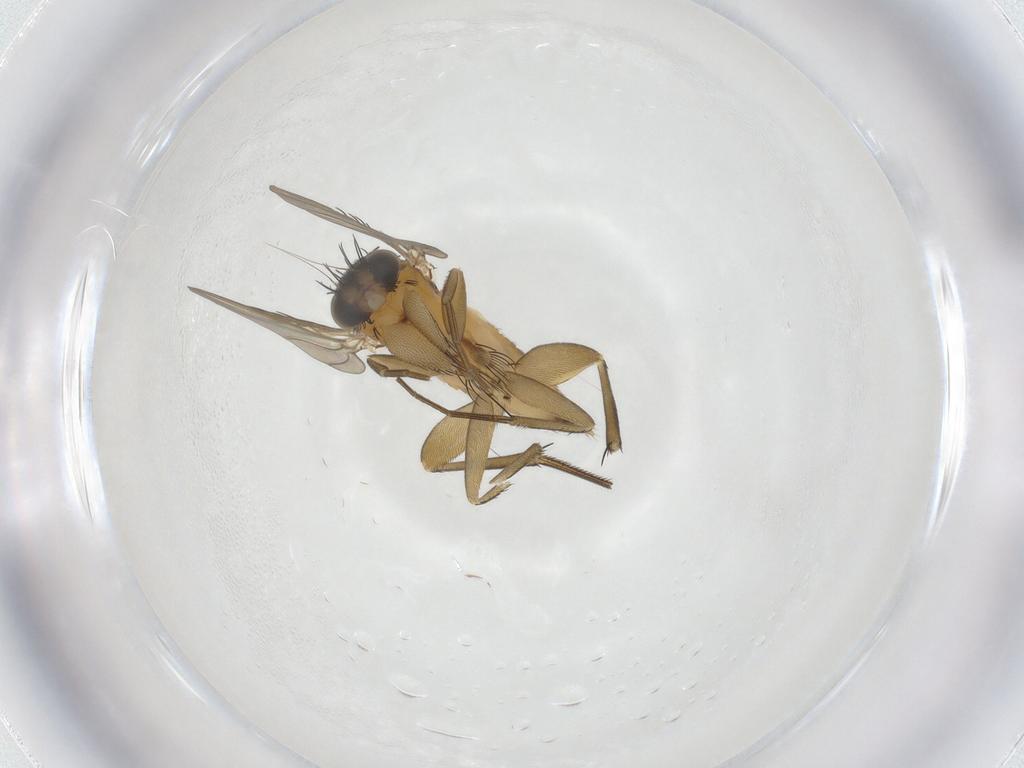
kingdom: Animalia
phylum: Arthropoda
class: Insecta
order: Diptera
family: Phoridae
